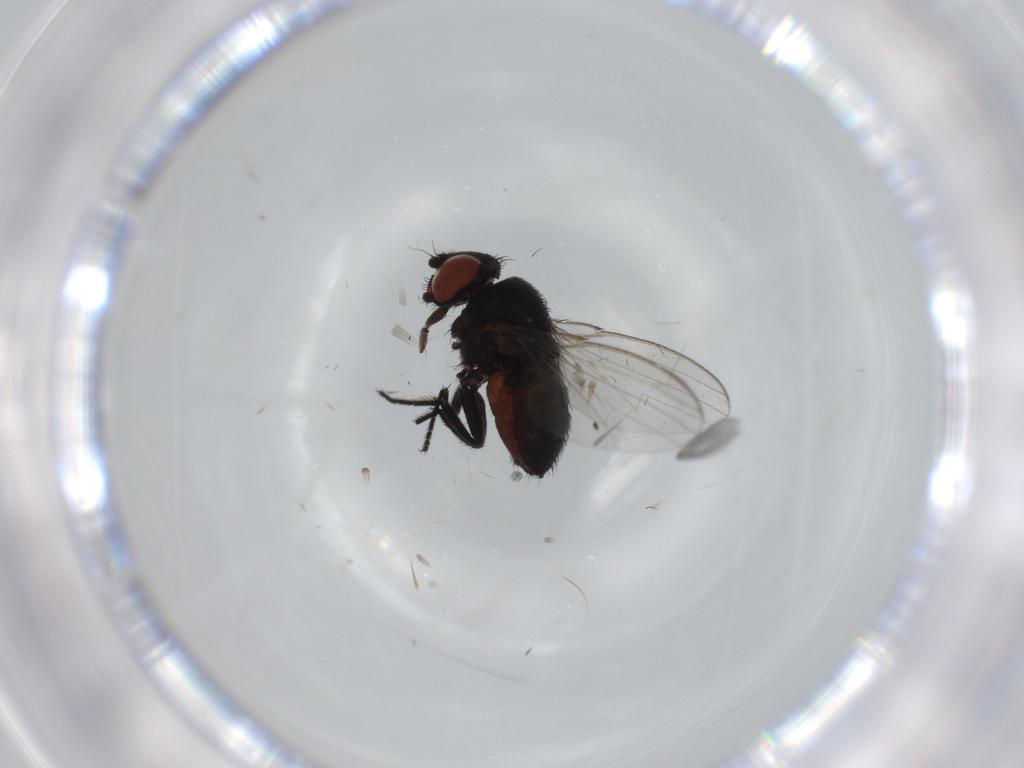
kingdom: Animalia
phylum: Arthropoda
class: Insecta
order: Diptera
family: Milichiidae
